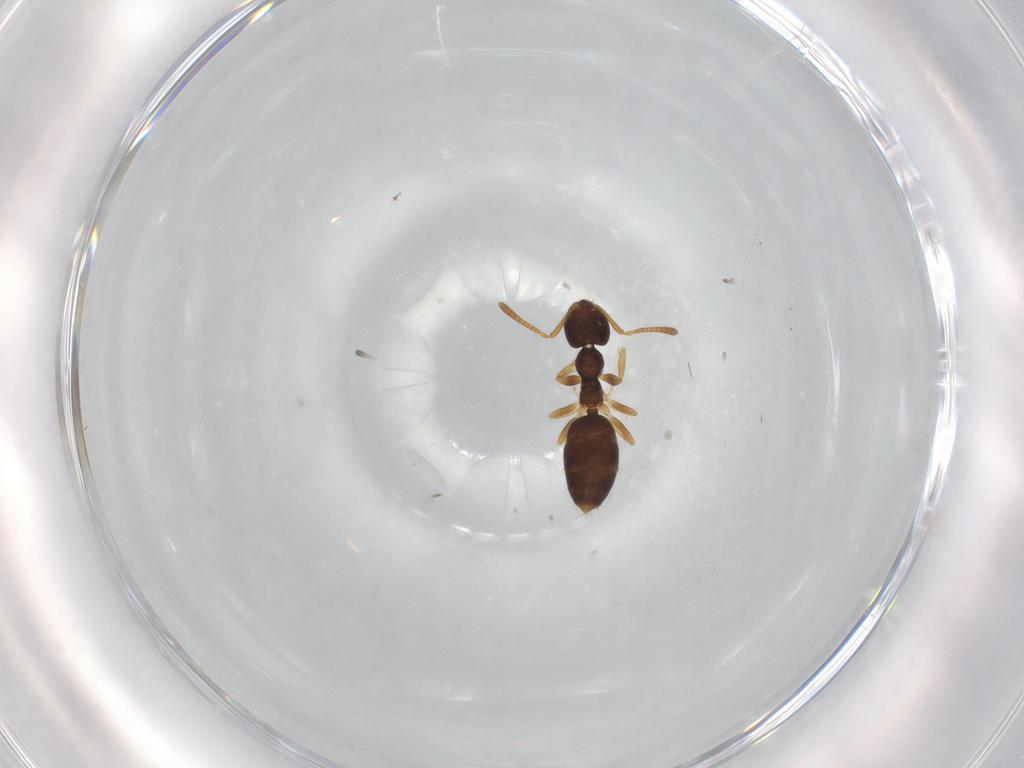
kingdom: Animalia
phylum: Arthropoda
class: Insecta
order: Hymenoptera
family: Formicidae
